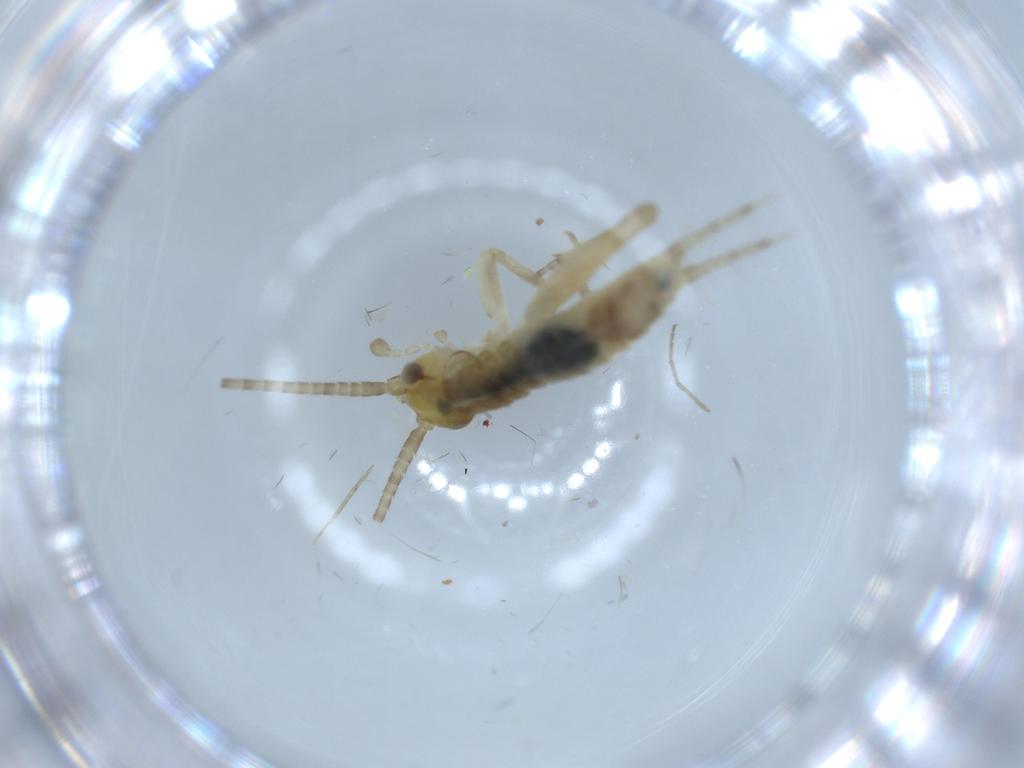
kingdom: Animalia
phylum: Arthropoda
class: Insecta
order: Orthoptera
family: Gryllidae
